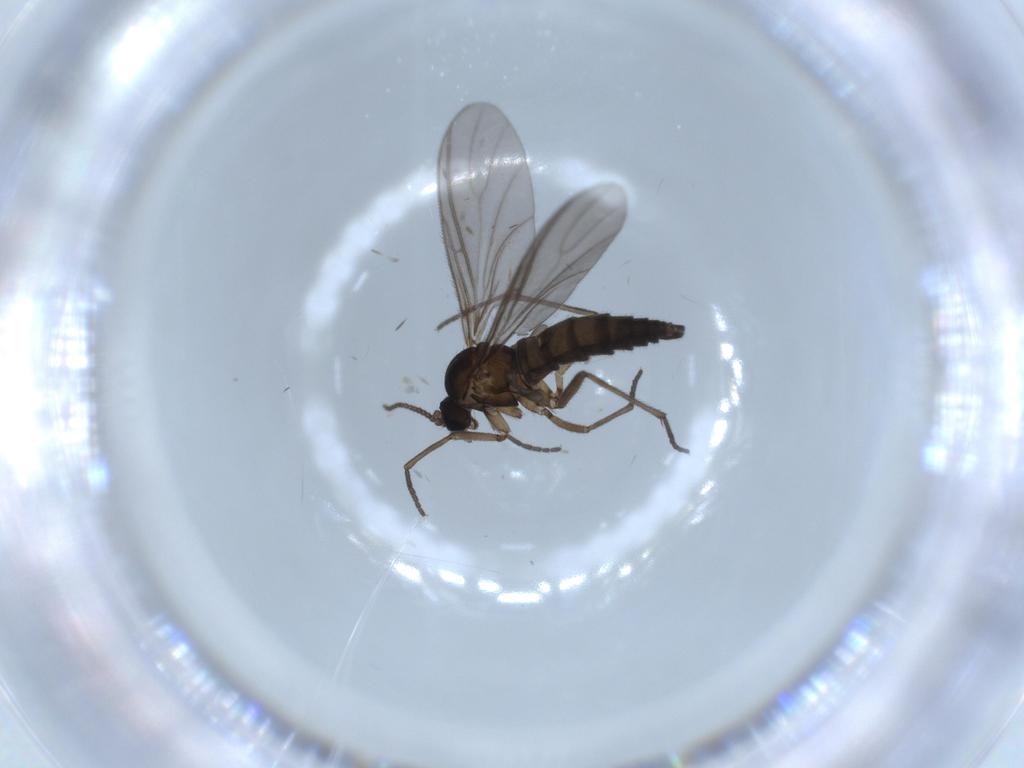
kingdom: Animalia
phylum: Arthropoda
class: Insecta
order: Diptera
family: Sciaridae
